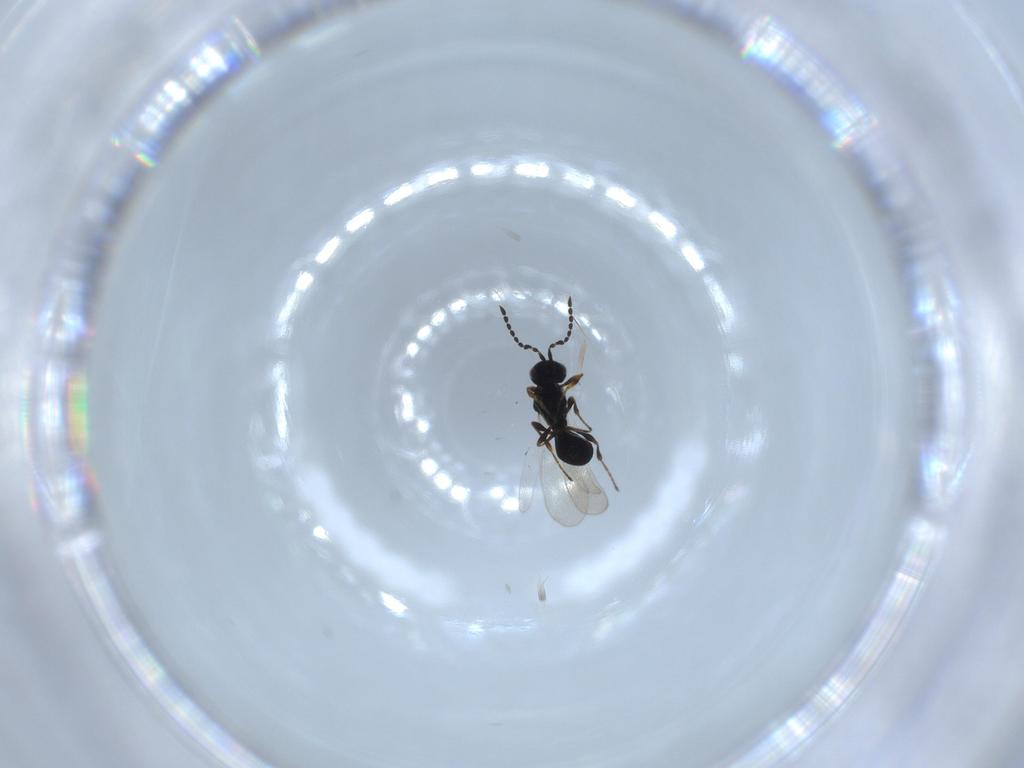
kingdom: Animalia
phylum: Arthropoda
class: Insecta
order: Hymenoptera
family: Platygastridae
